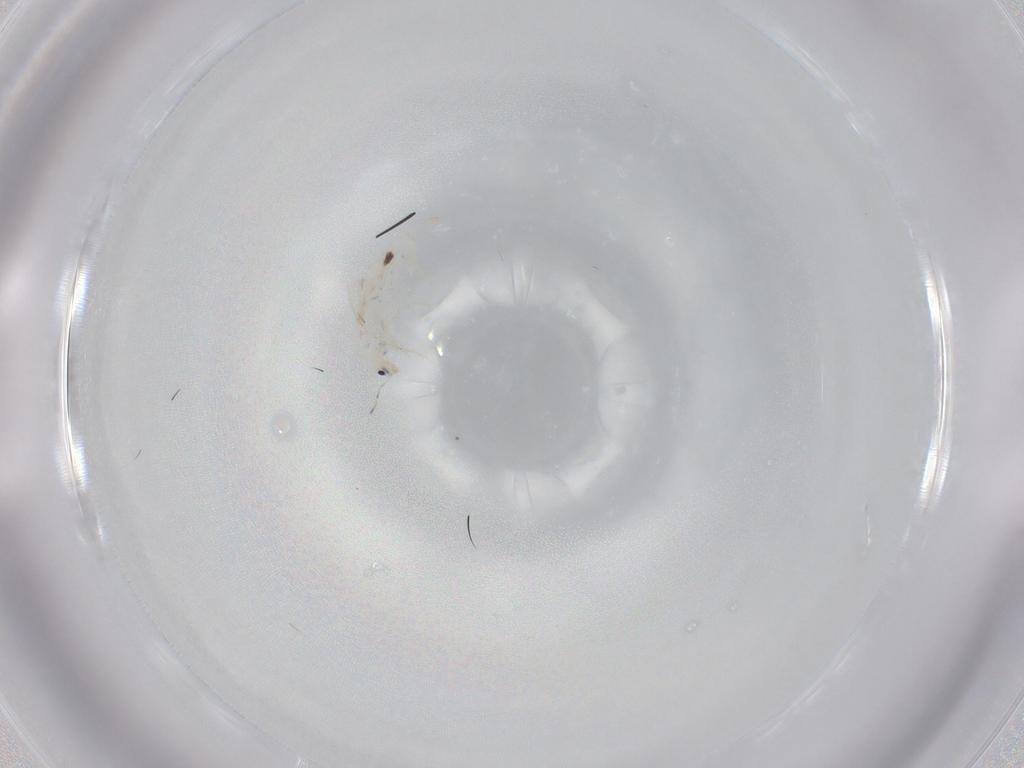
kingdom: Animalia
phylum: Arthropoda
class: Collembola
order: Entomobryomorpha
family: Entomobryidae
